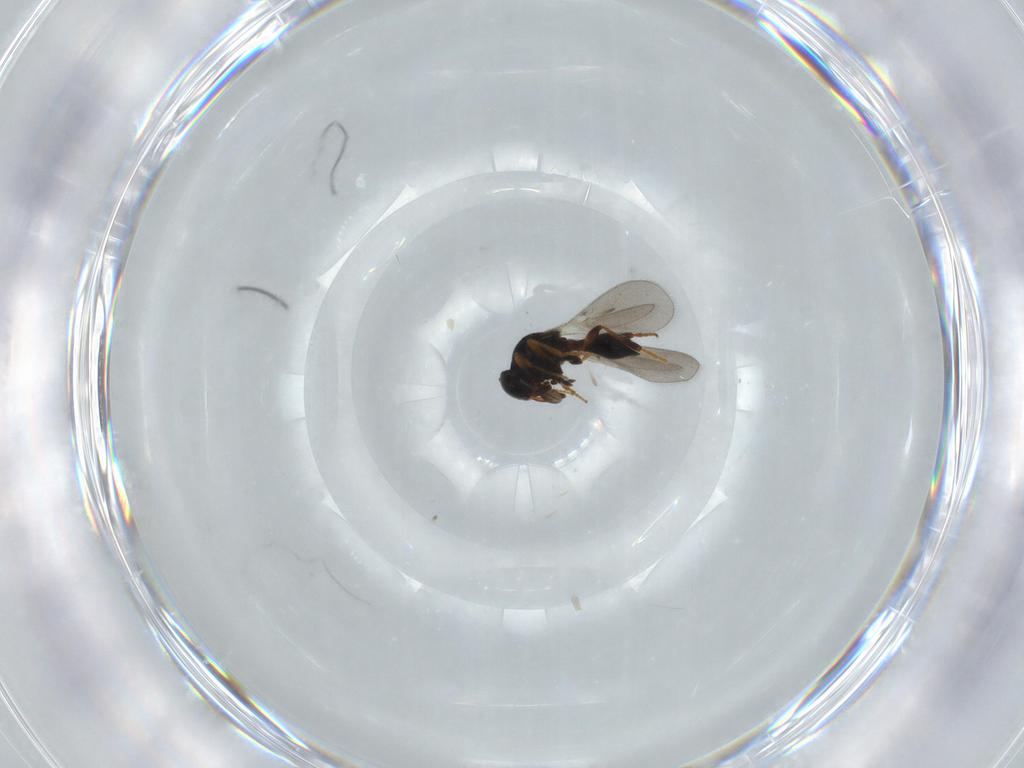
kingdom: Animalia
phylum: Arthropoda
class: Insecta
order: Hymenoptera
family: Platygastridae
